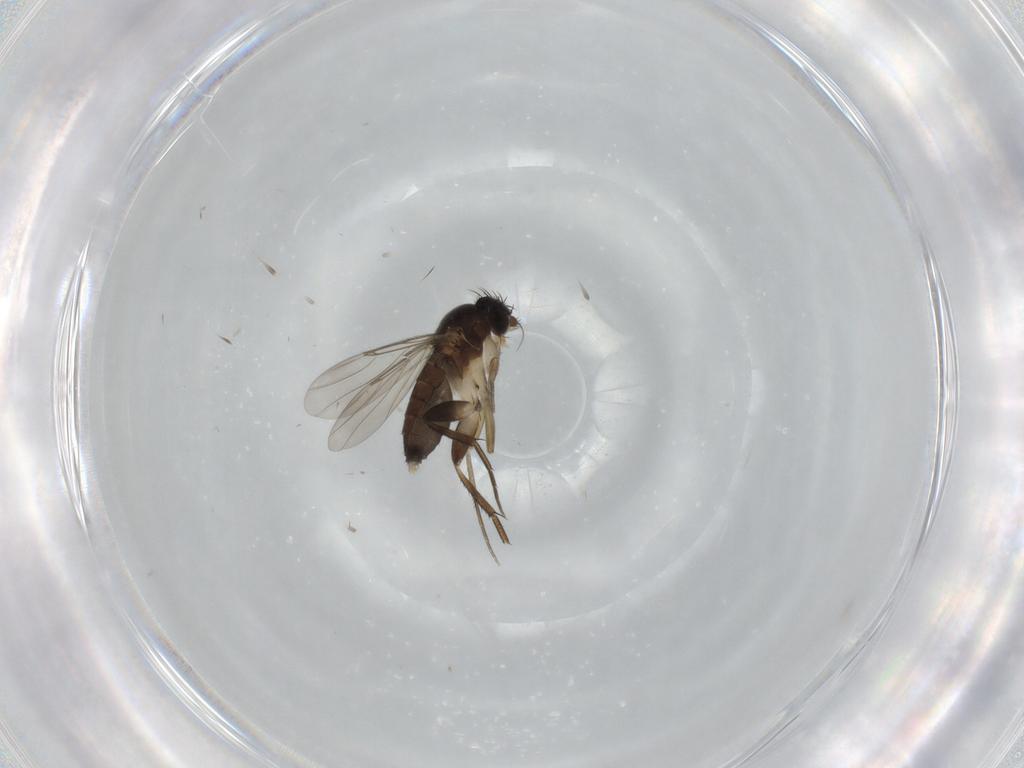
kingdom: Animalia
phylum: Arthropoda
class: Insecta
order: Diptera
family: Phoridae
